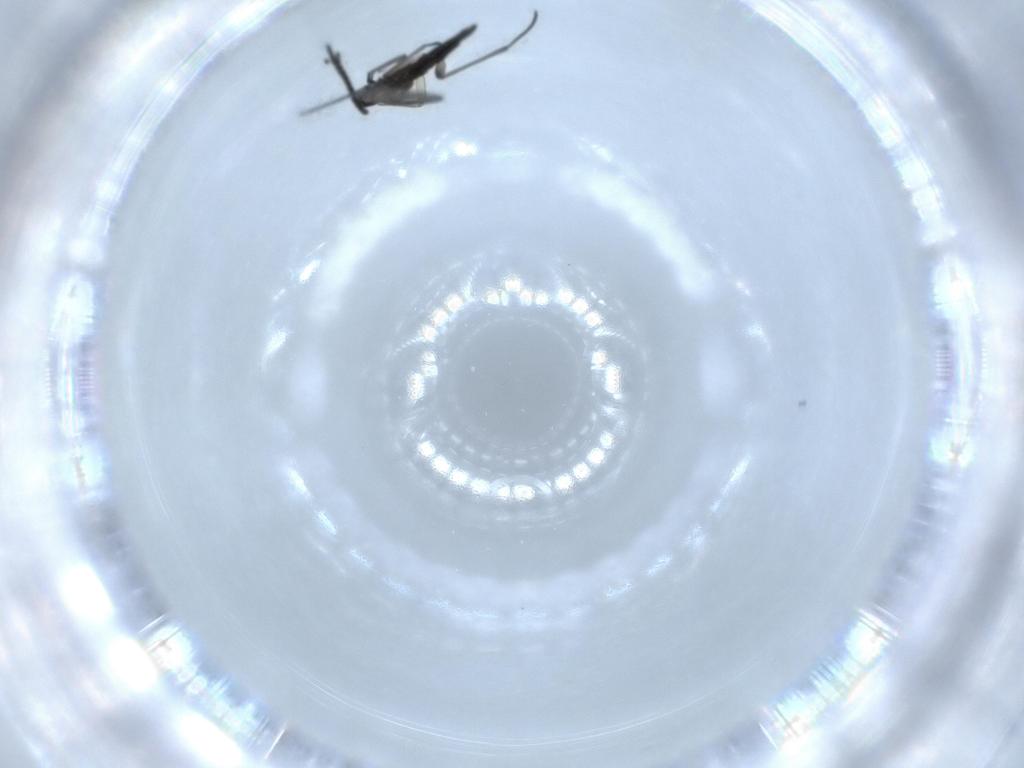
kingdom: Animalia
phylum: Arthropoda
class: Insecta
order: Diptera
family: Sciaridae
